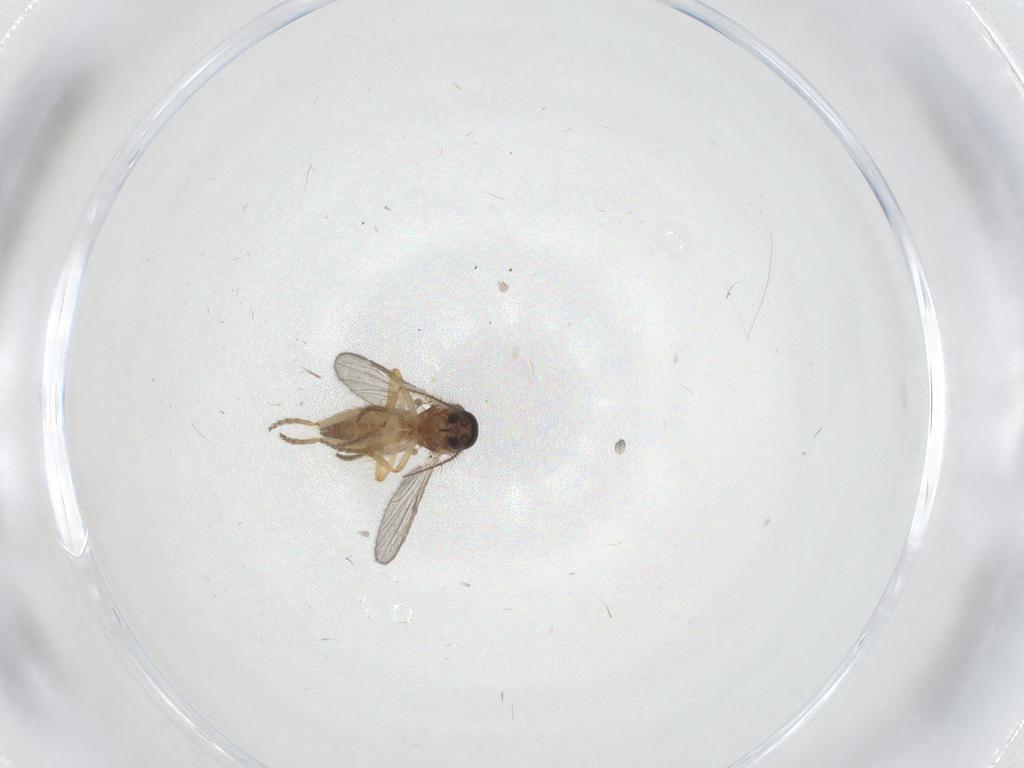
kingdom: Animalia
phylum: Arthropoda
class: Insecta
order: Diptera
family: Ceratopogonidae
